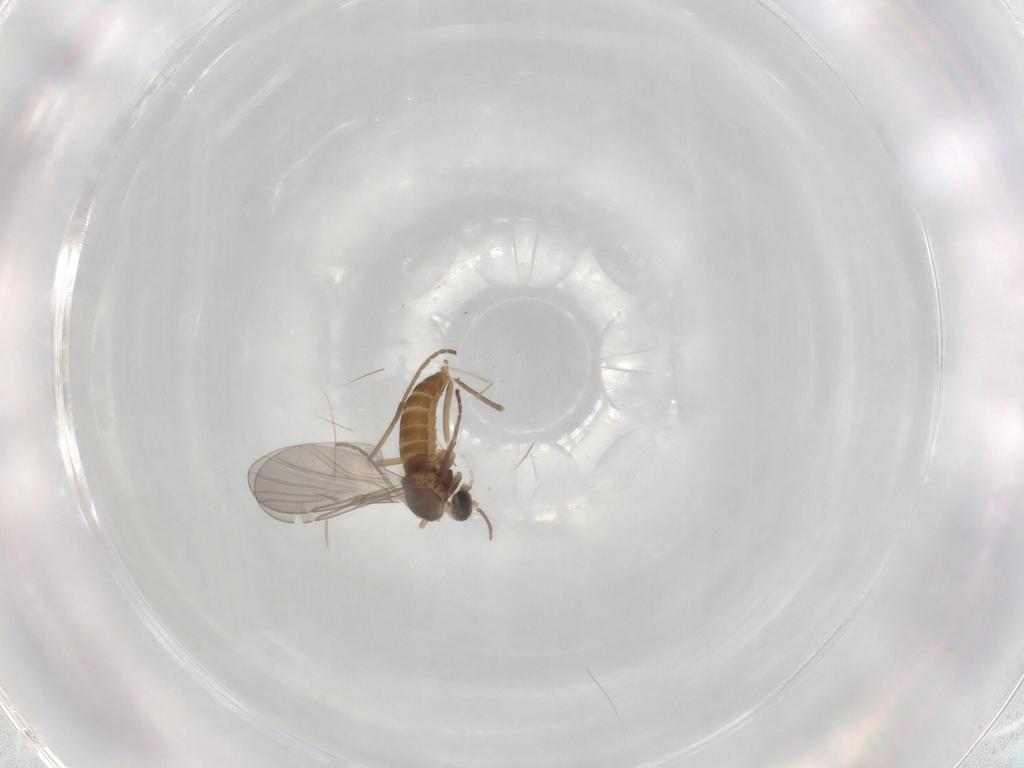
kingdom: Animalia
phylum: Arthropoda
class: Insecta
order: Diptera
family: Cecidomyiidae
